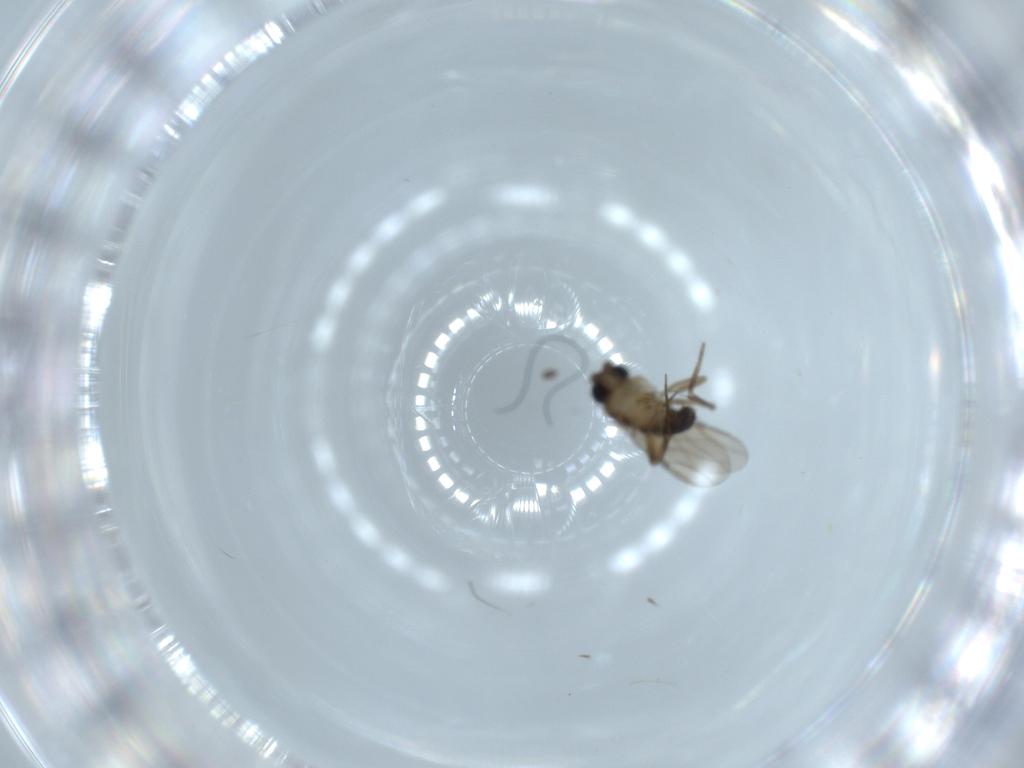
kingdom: Animalia
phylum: Arthropoda
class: Insecta
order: Diptera
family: Phoridae
